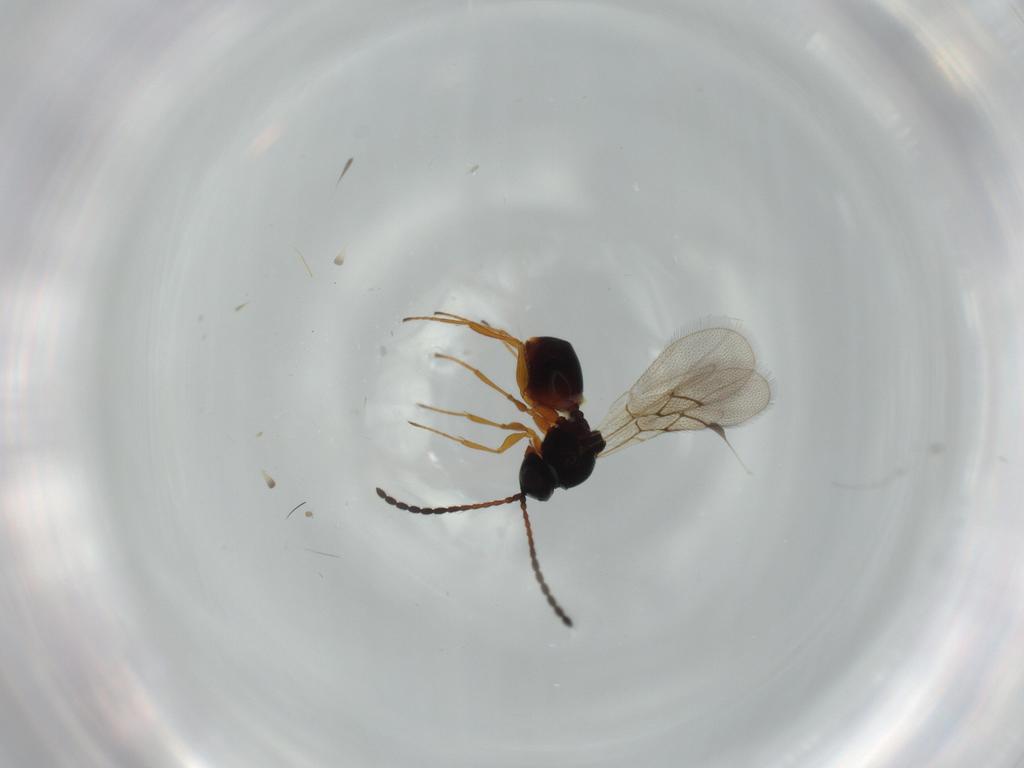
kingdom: Animalia
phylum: Arthropoda
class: Insecta
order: Hymenoptera
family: Figitidae
